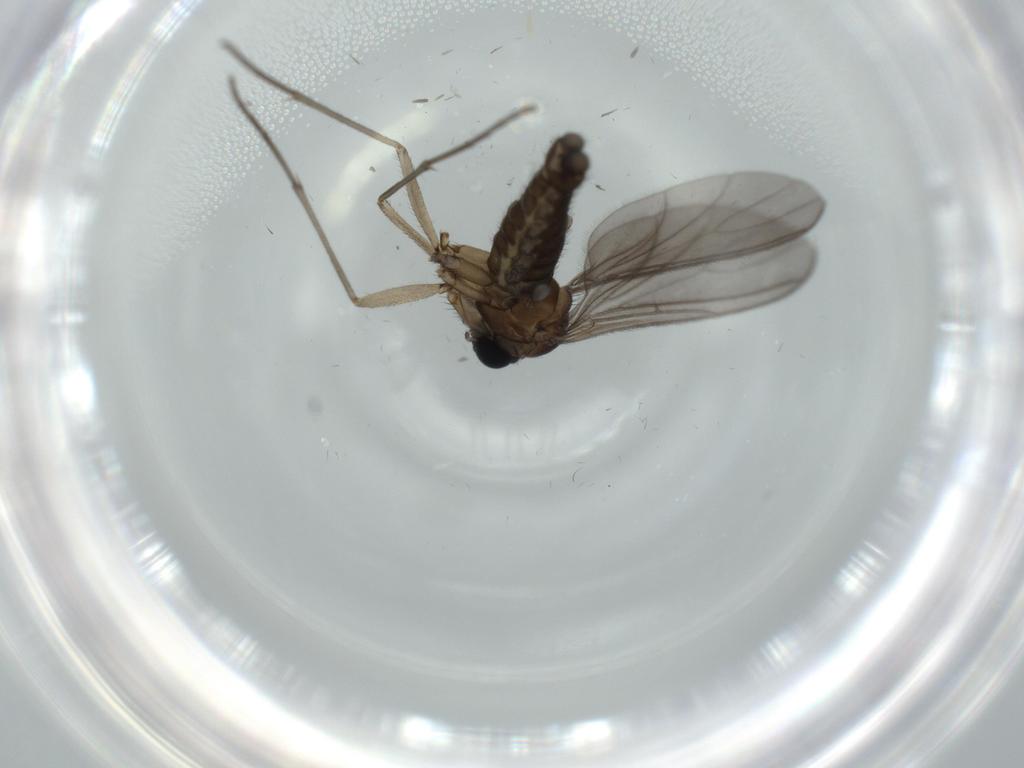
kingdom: Animalia
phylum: Arthropoda
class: Insecta
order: Diptera
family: Sciaridae
